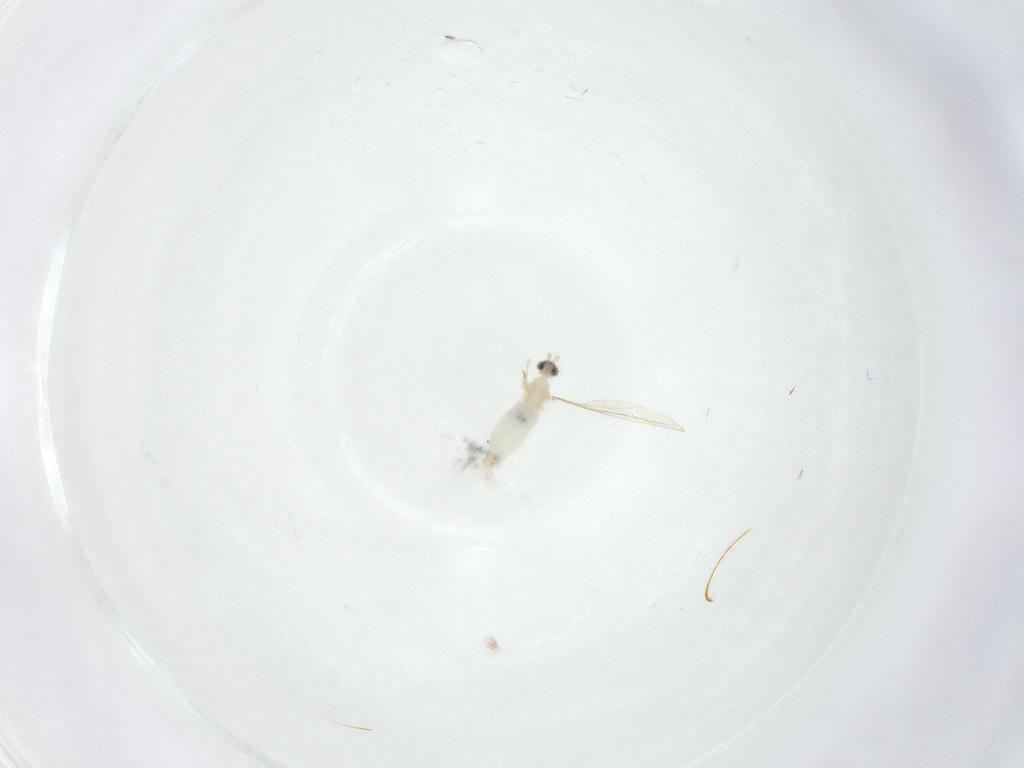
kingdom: Animalia
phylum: Arthropoda
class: Insecta
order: Diptera
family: Cecidomyiidae
